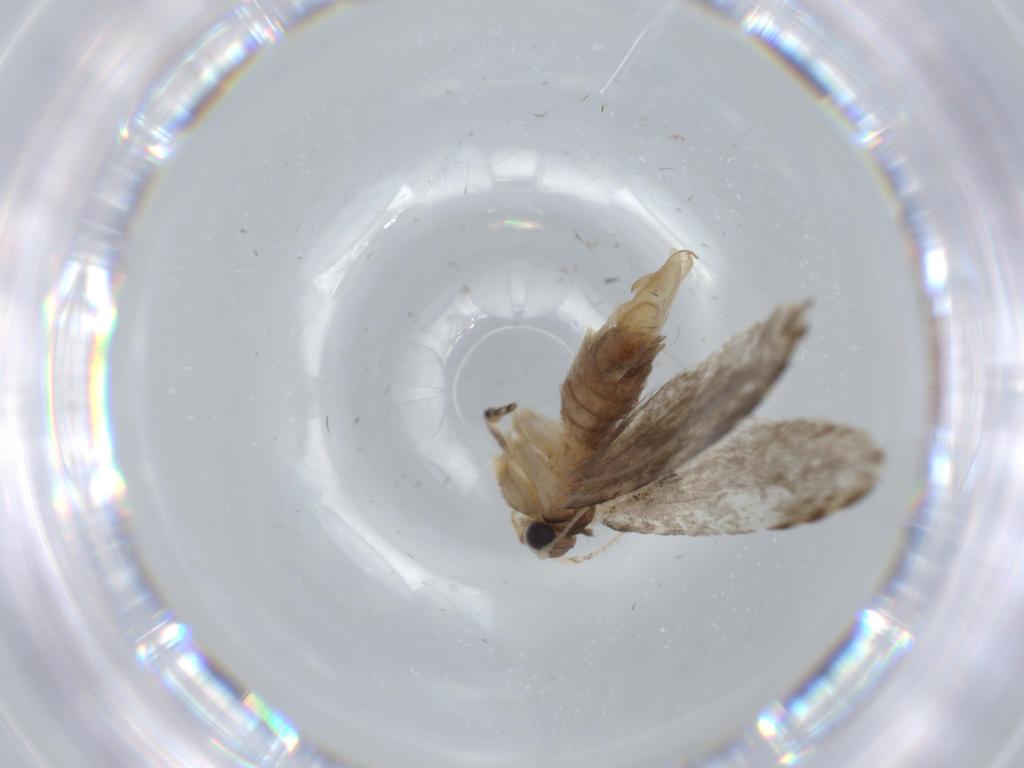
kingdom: Animalia
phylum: Arthropoda
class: Insecta
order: Lepidoptera
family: Tineidae
